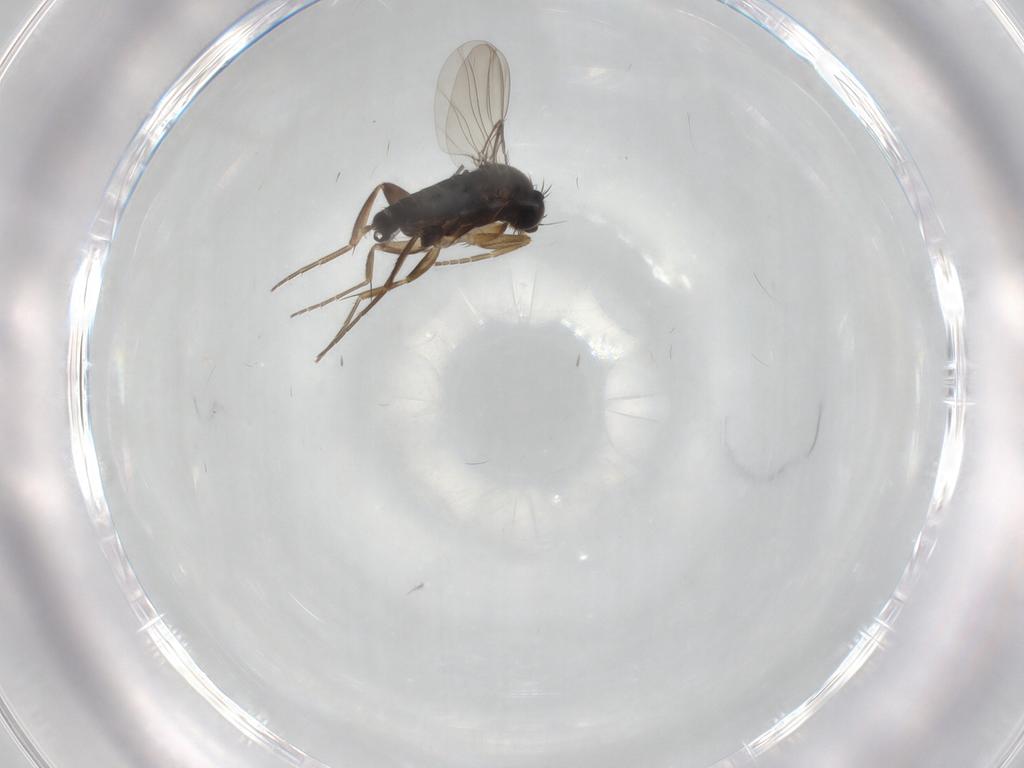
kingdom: Animalia
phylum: Arthropoda
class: Insecta
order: Diptera
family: Phoridae
